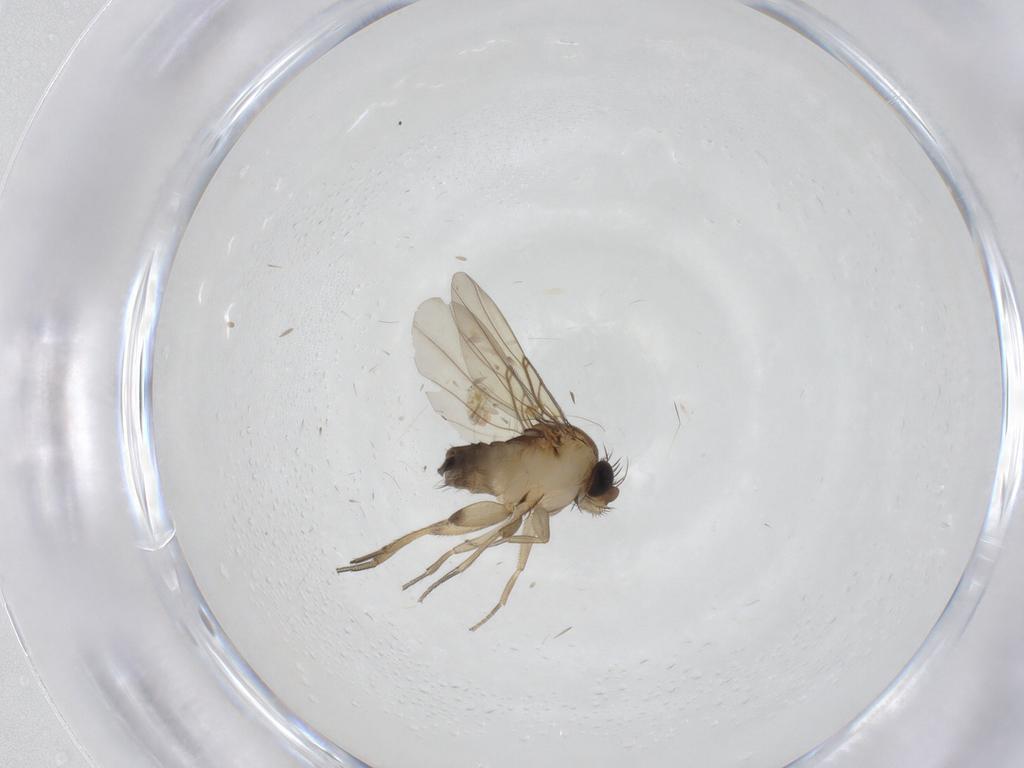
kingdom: Animalia
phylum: Arthropoda
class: Insecta
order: Diptera
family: Phoridae
